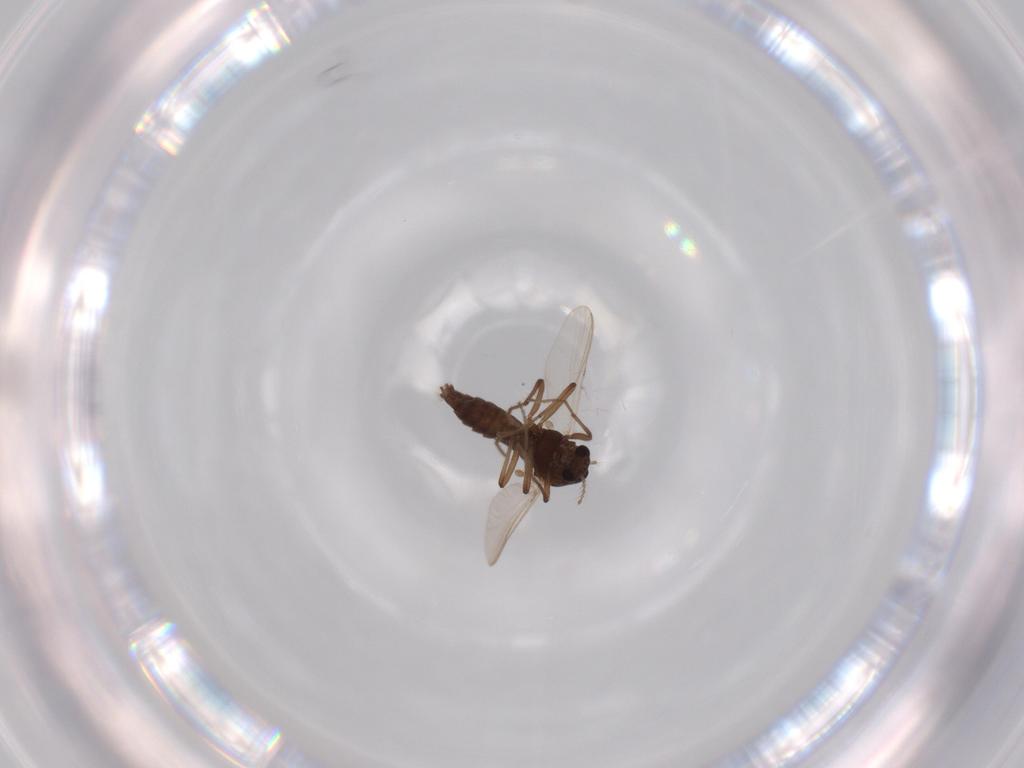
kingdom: Animalia
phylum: Arthropoda
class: Insecta
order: Diptera
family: Chironomidae
